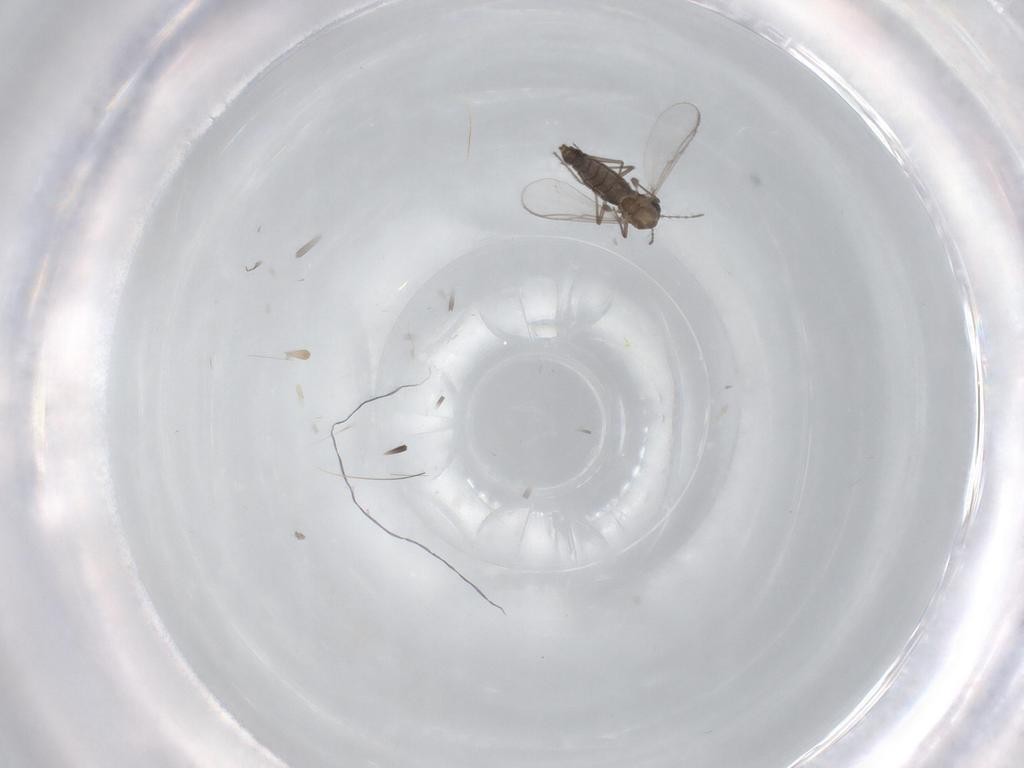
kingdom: Animalia
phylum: Arthropoda
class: Insecta
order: Diptera
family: Chironomidae
